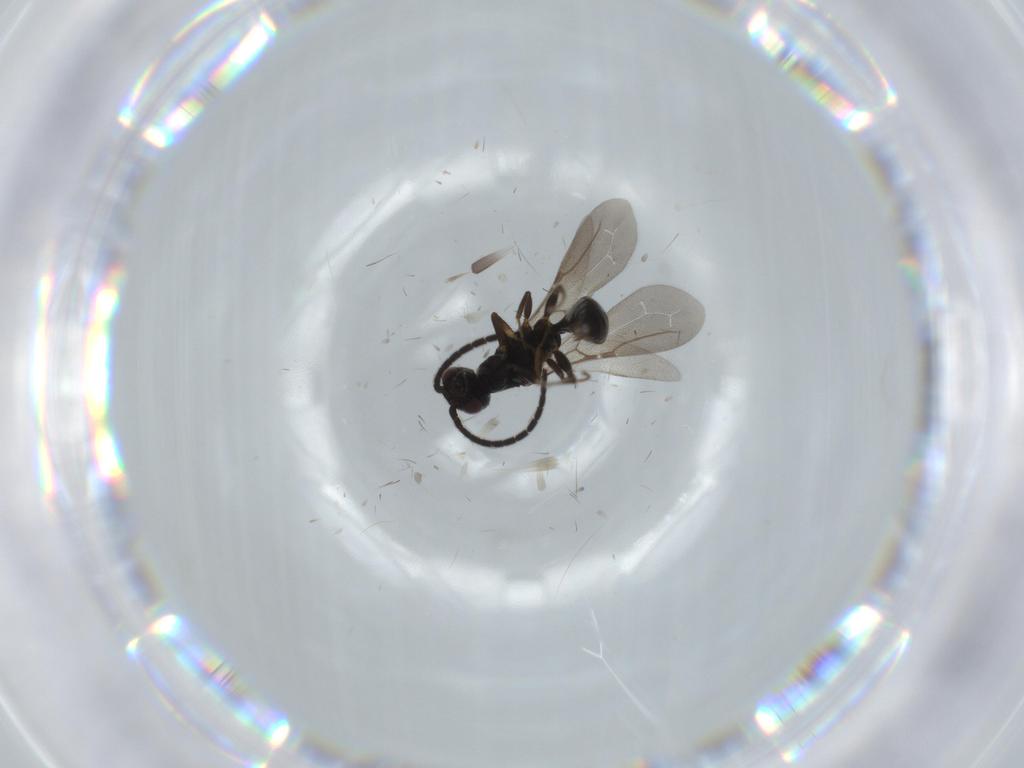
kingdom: Animalia
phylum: Arthropoda
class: Insecta
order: Hymenoptera
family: Bethylidae
